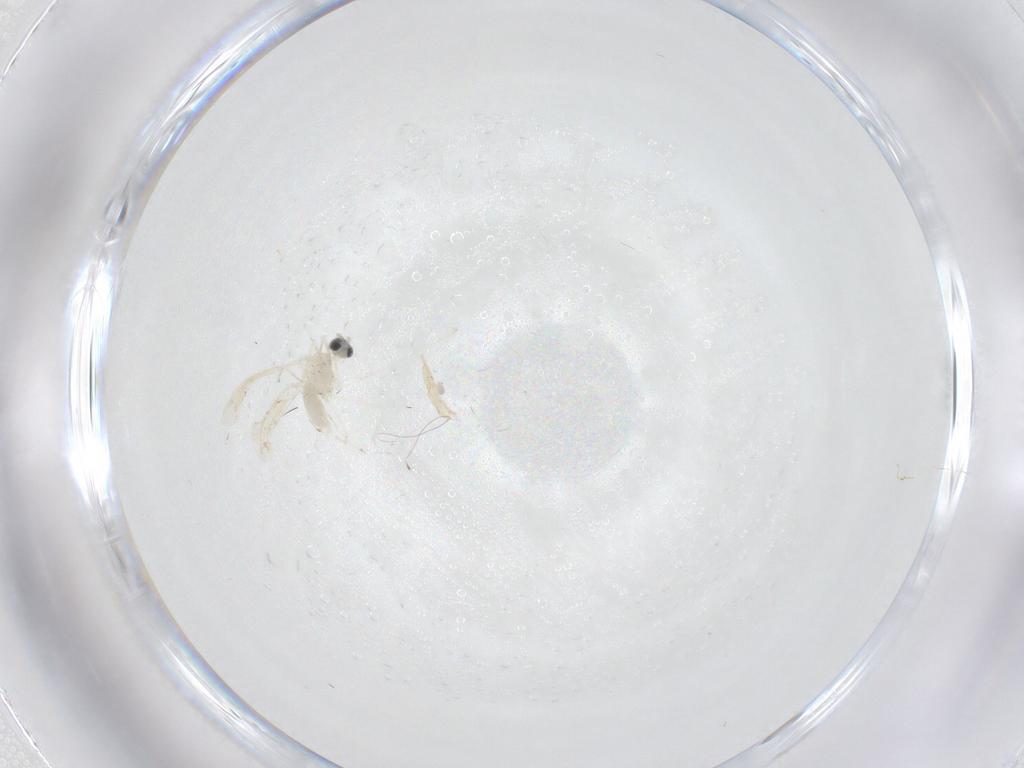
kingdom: Animalia
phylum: Arthropoda
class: Insecta
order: Diptera
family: Cecidomyiidae
